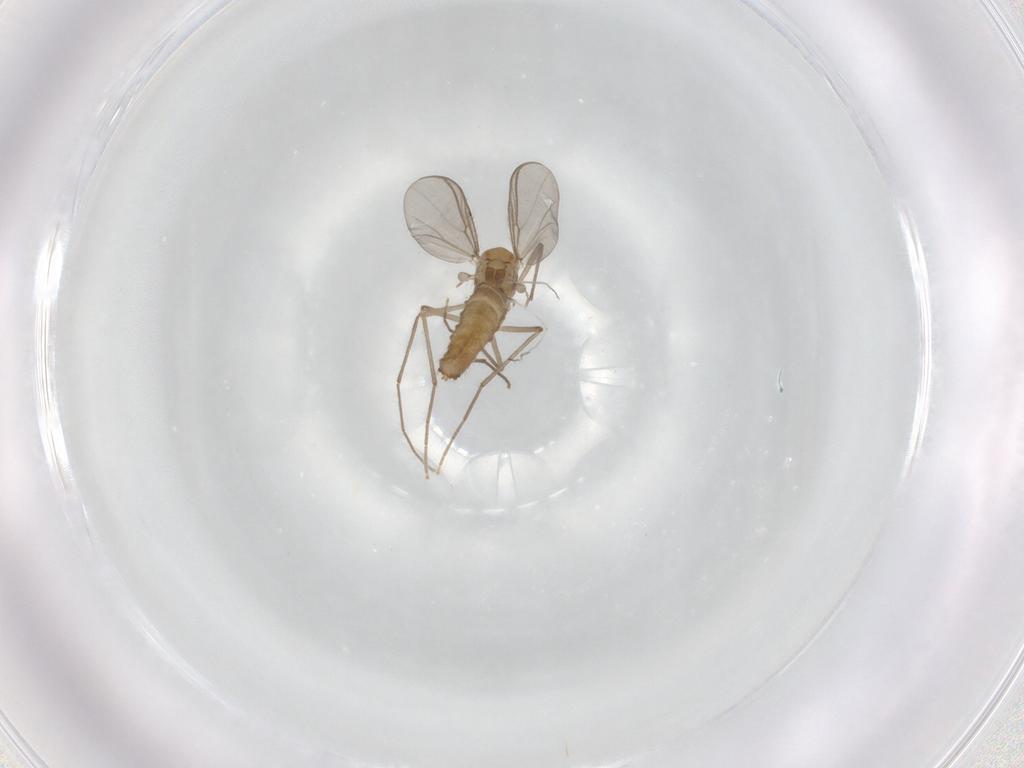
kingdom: Animalia
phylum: Arthropoda
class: Insecta
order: Diptera
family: Chironomidae
